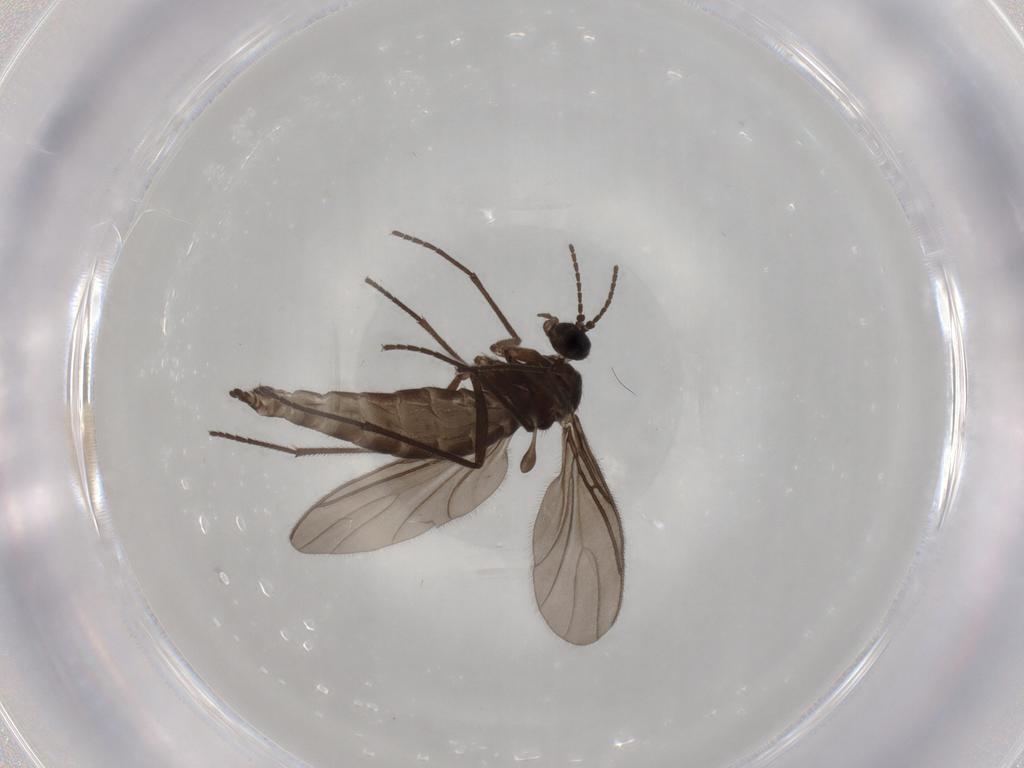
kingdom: Animalia
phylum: Arthropoda
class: Insecta
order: Diptera
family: Sciaridae
